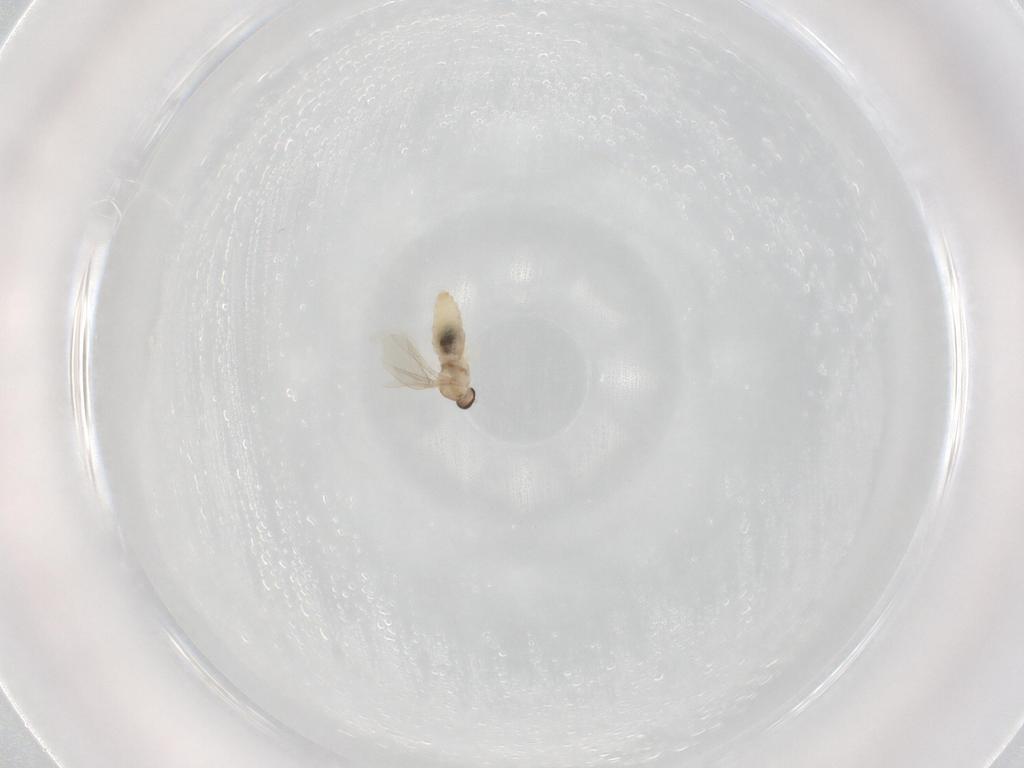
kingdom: Animalia
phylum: Arthropoda
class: Insecta
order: Diptera
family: Cecidomyiidae
